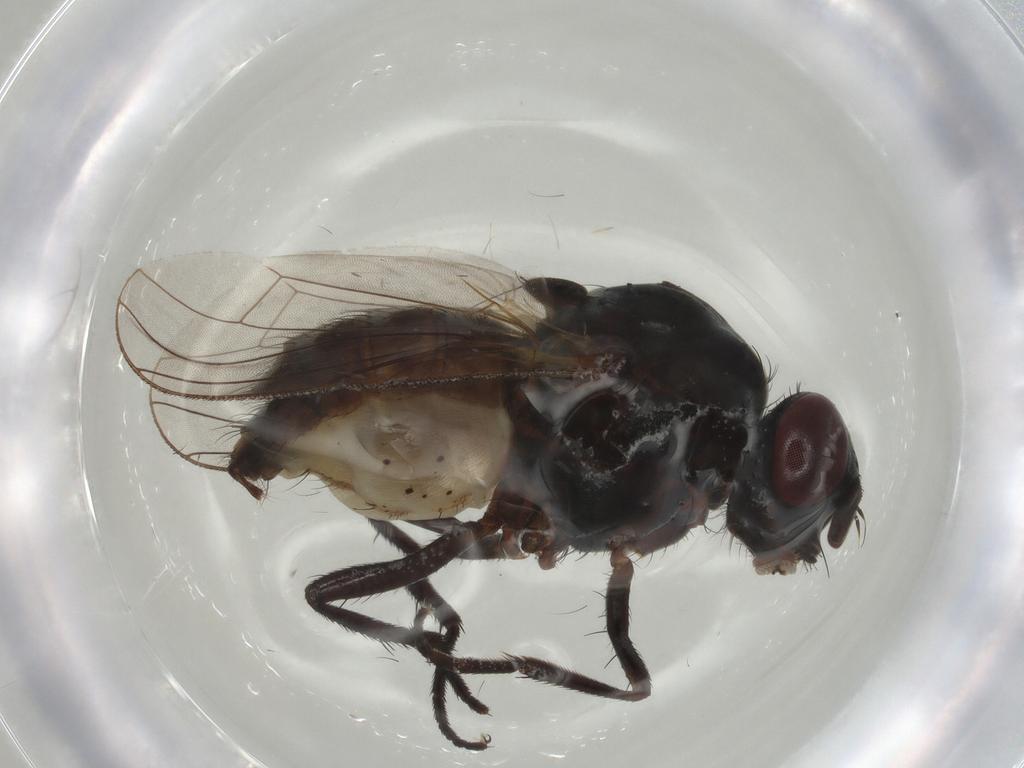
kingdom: Animalia
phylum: Arthropoda
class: Insecta
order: Diptera
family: Anthomyiidae
